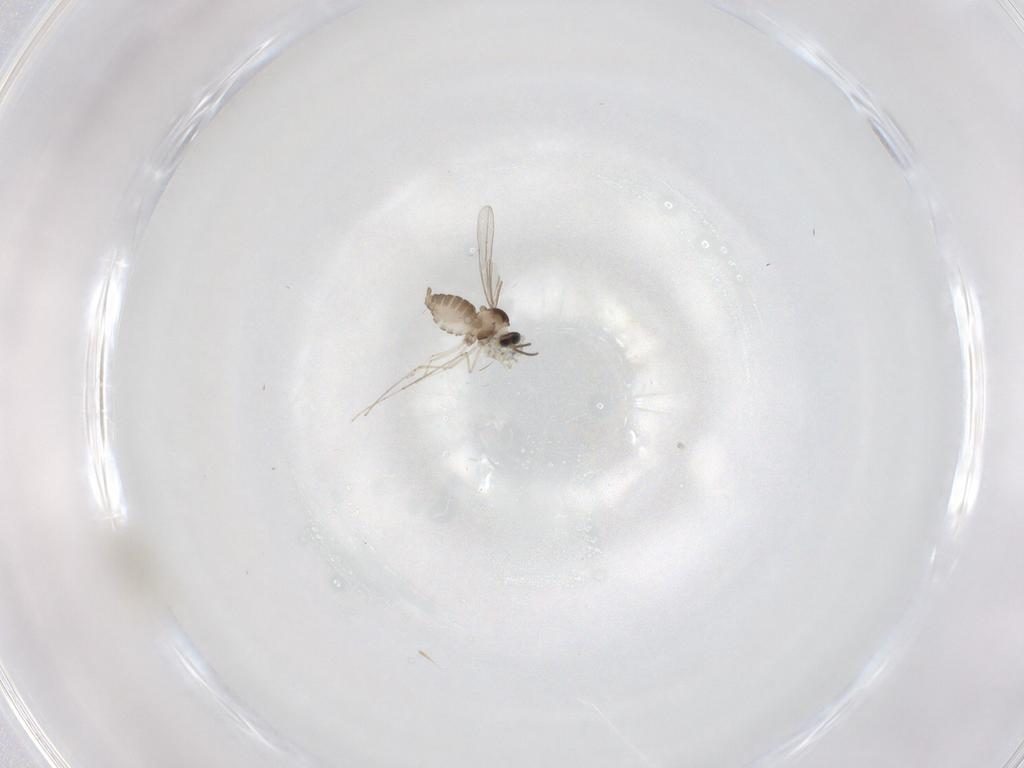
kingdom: Animalia
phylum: Arthropoda
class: Insecta
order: Diptera
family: Cecidomyiidae
